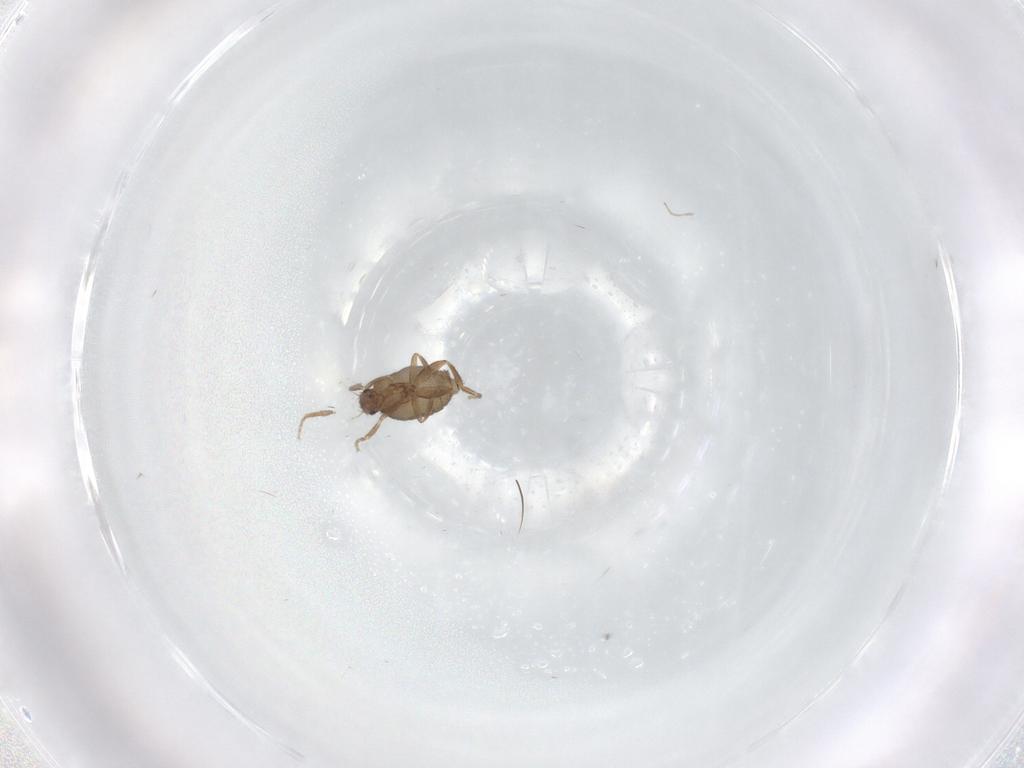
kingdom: Animalia
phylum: Arthropoda
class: Insecta
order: Diptera
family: Phoridae
